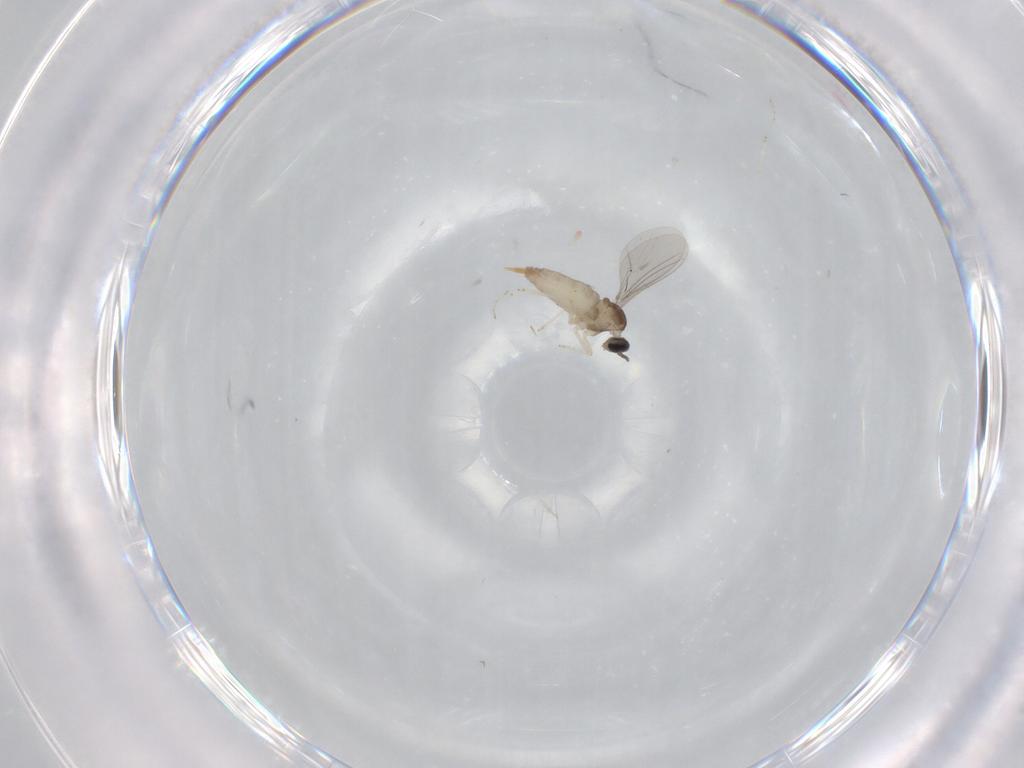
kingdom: Animalia
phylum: Arthropoda
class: Insecta
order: Diptera
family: Cecidomyiidae
